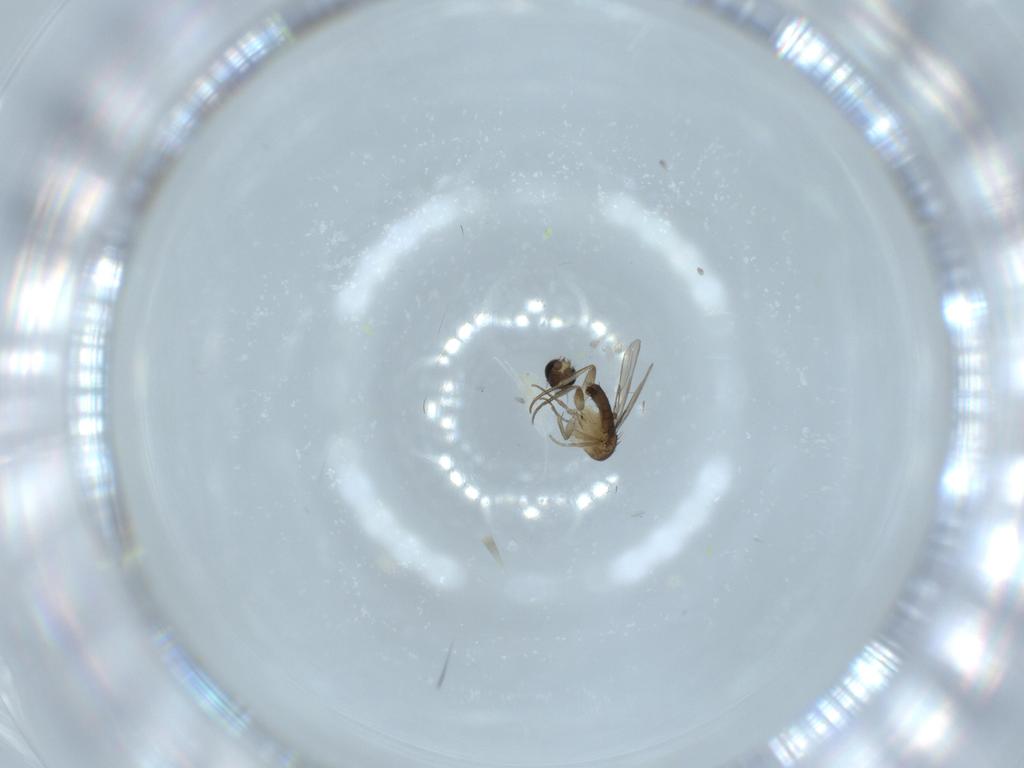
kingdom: Animalia
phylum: Arthropoda
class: Insecta
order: Diptera
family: Phoridae
